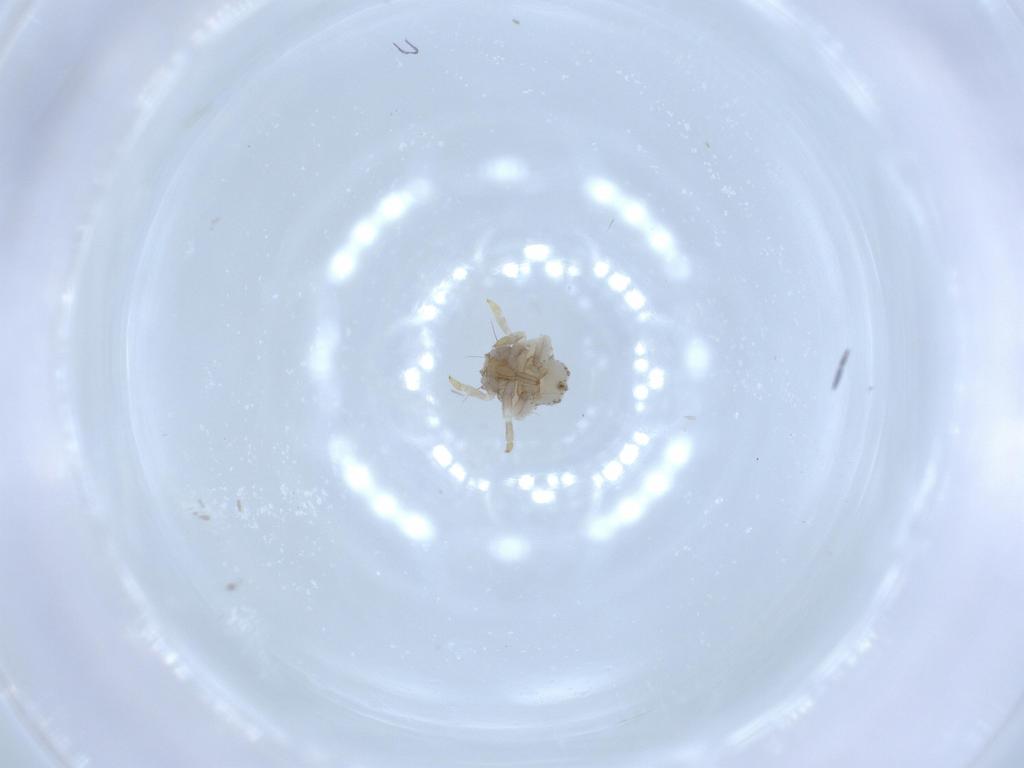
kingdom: Animalia
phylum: Arthropoda
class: Insecta
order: Hemiptera
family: Acanaloniidae
